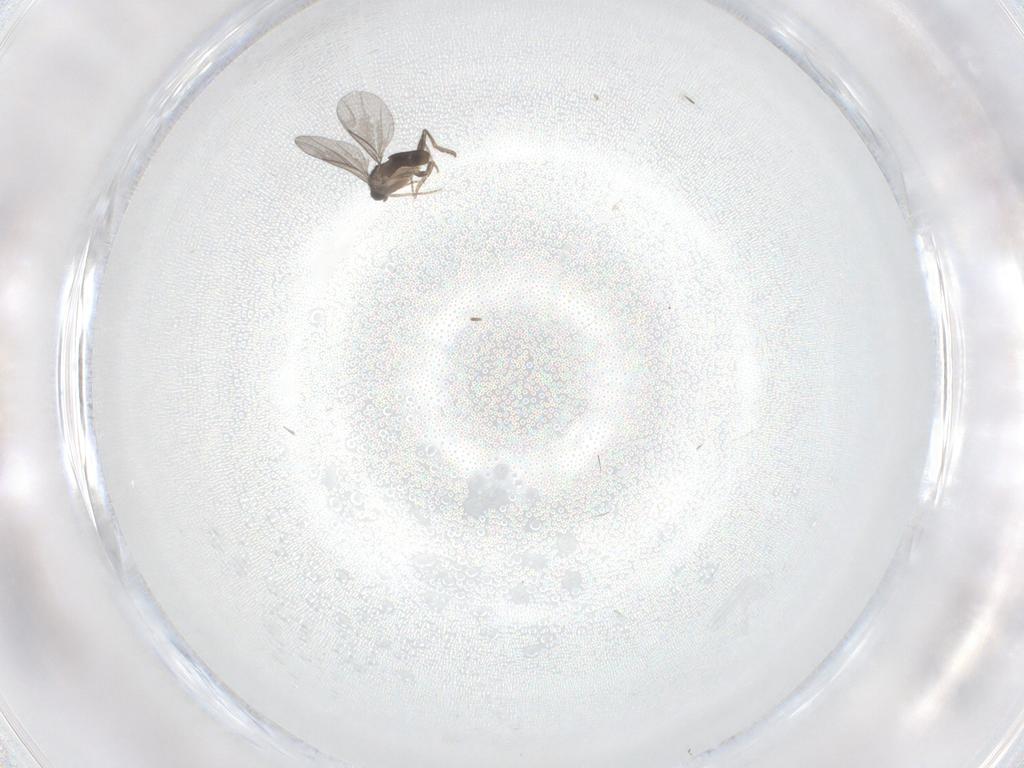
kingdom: Animalia
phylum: Arthropoda
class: Insecta
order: Diptera
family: Phoridae
